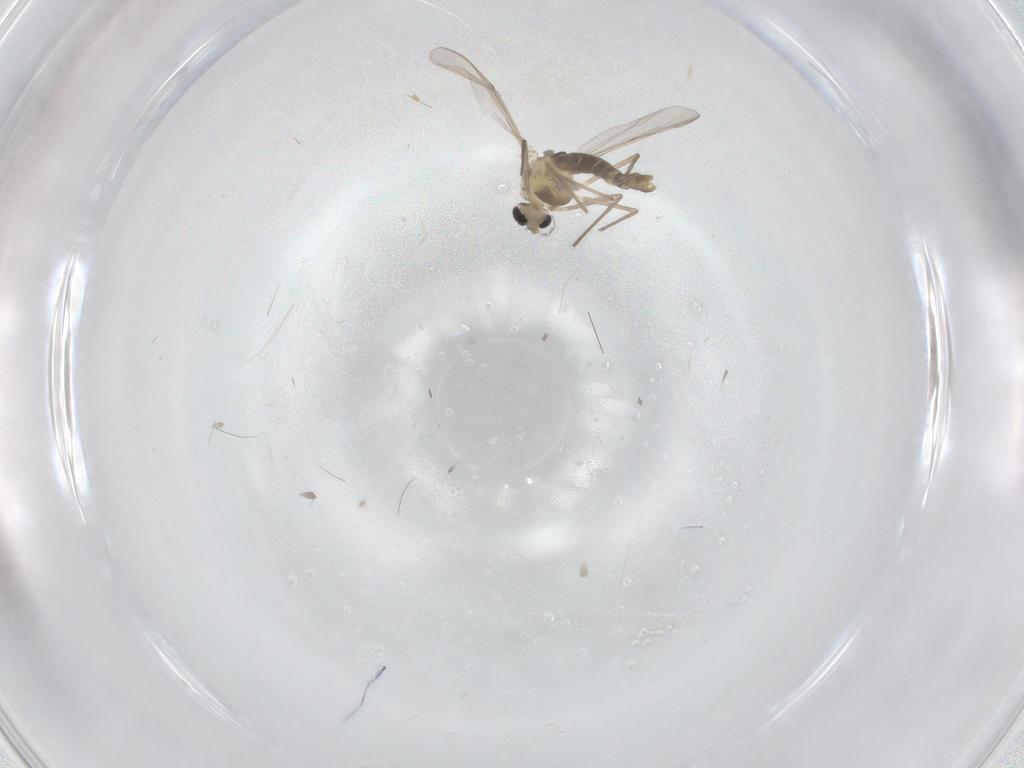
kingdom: Animalia
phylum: Arthropoda
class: Insecta
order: Diptera
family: Chironomidae
